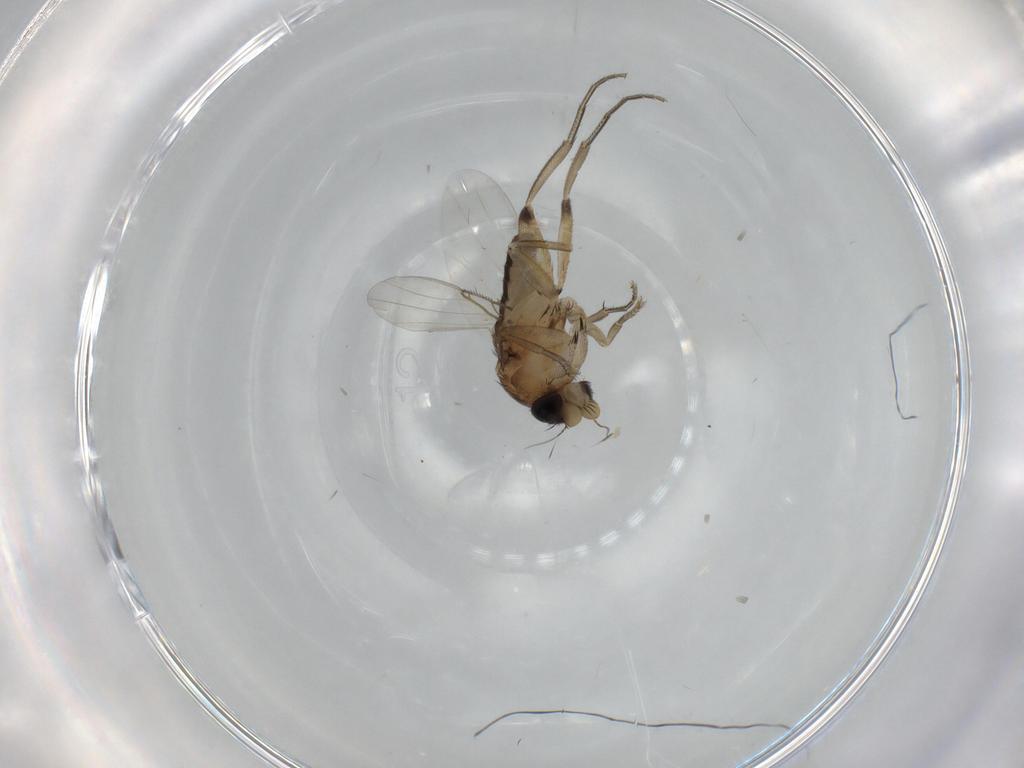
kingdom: Animalia
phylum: Arthropoda
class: Insecta
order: Diptera
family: Phoridae
